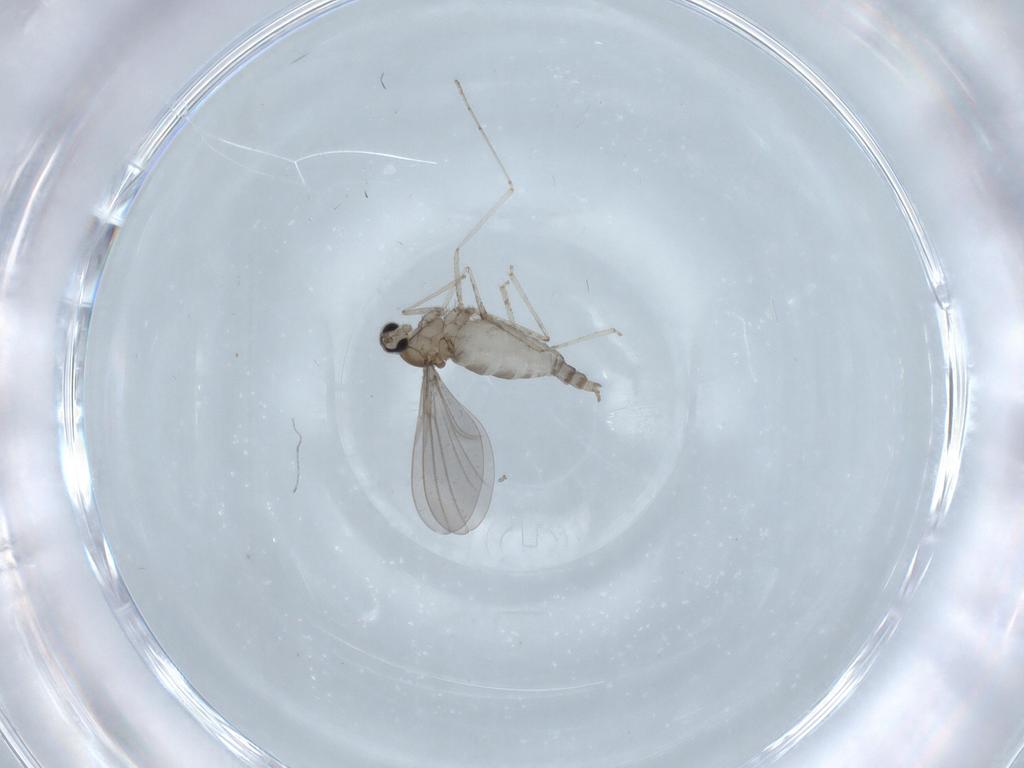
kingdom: Animalia
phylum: Arthropoda
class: Insecta
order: Diptera
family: Cecidomyiidae
